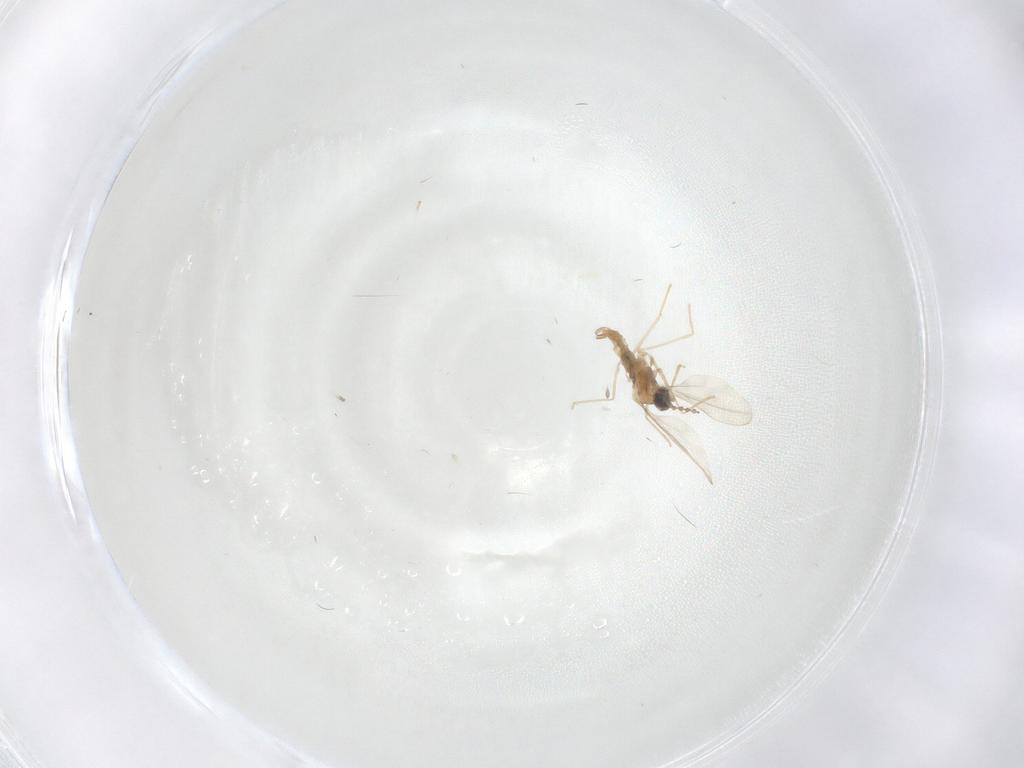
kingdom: Animalia
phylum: Arthropoda
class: Insecta
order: Diptera
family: Cecidomyiidae
